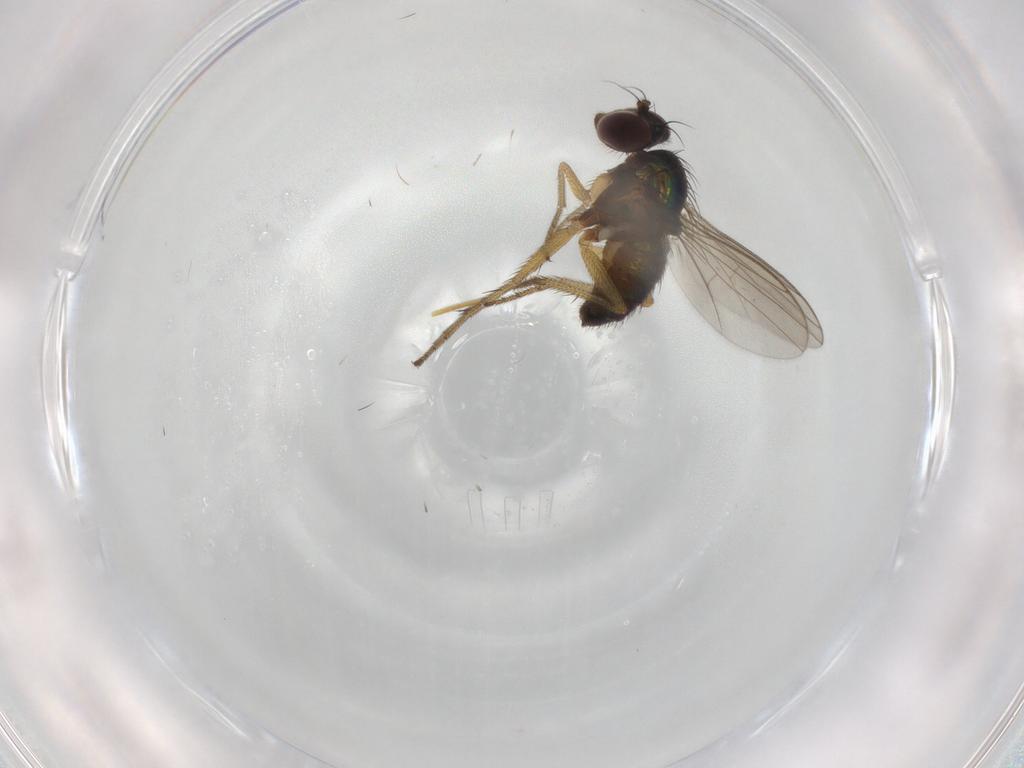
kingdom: Animalia
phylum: Arthropoda
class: Insecta
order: Diptera
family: Dolichopodidae
